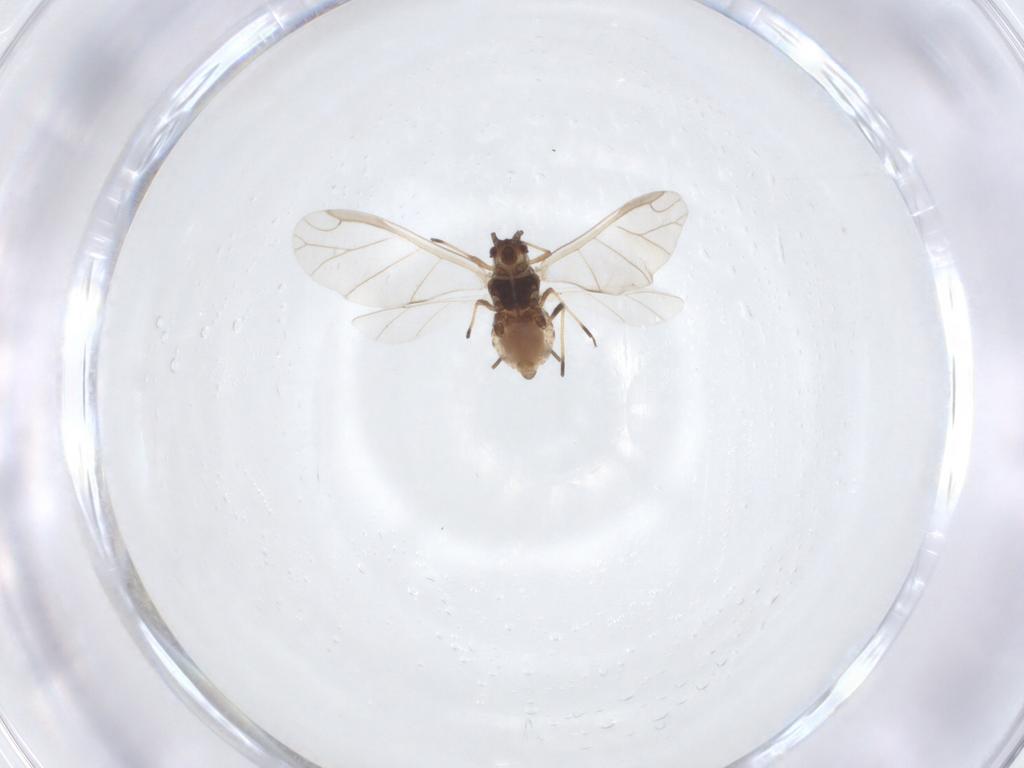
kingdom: Animalia
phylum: Arthropoda
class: Insecta
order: Hemiptera
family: Aphididae
